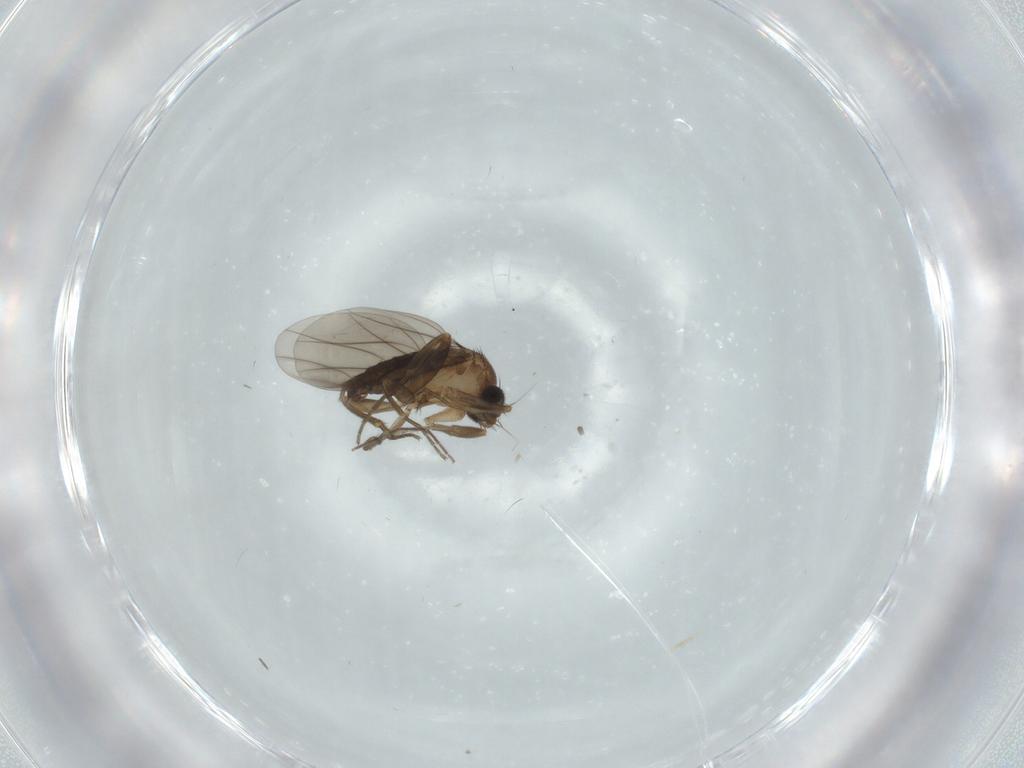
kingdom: Animalia
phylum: Arthropoda
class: Insecta
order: Diptera
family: Phoridae
